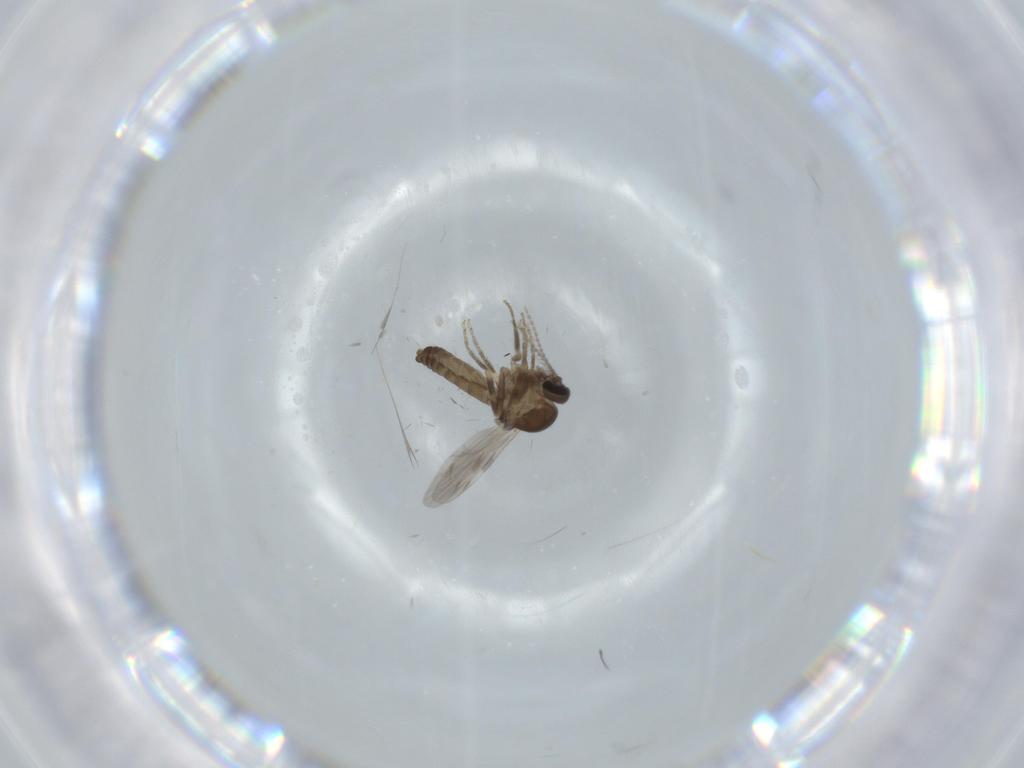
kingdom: Animalia
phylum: Arthropoda
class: Insecta
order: Diptera
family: Ceratopogonidae
